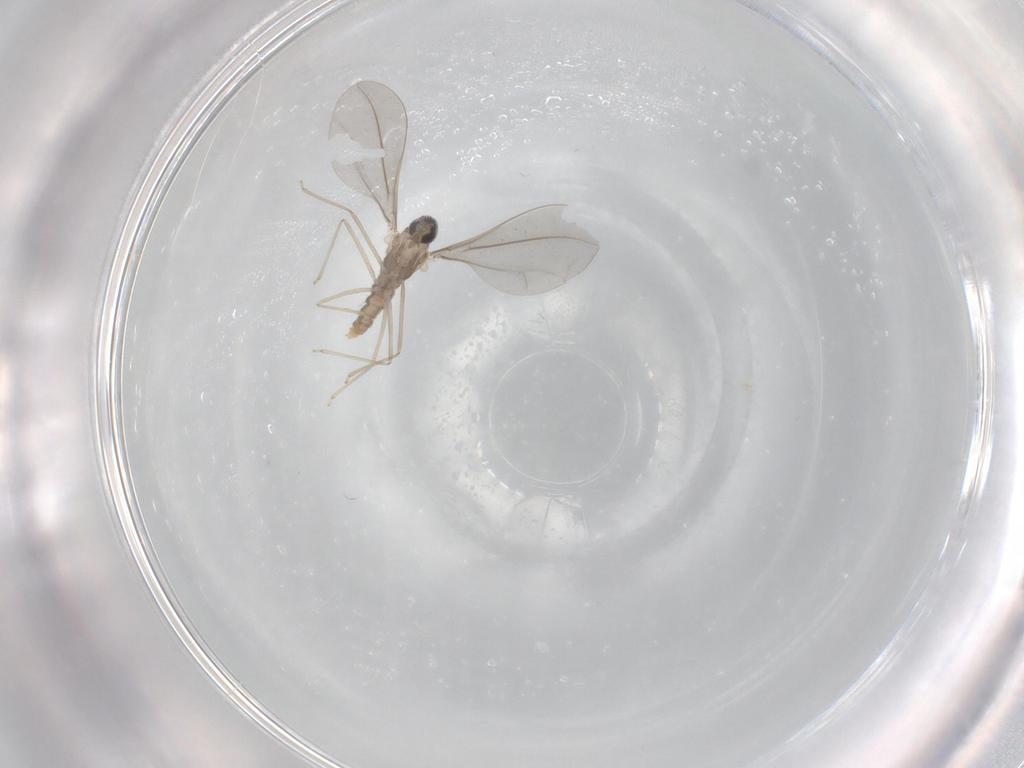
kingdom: Animalia
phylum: Arthropoda
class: Insecta
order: Diptera
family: Cecidomyiidae
